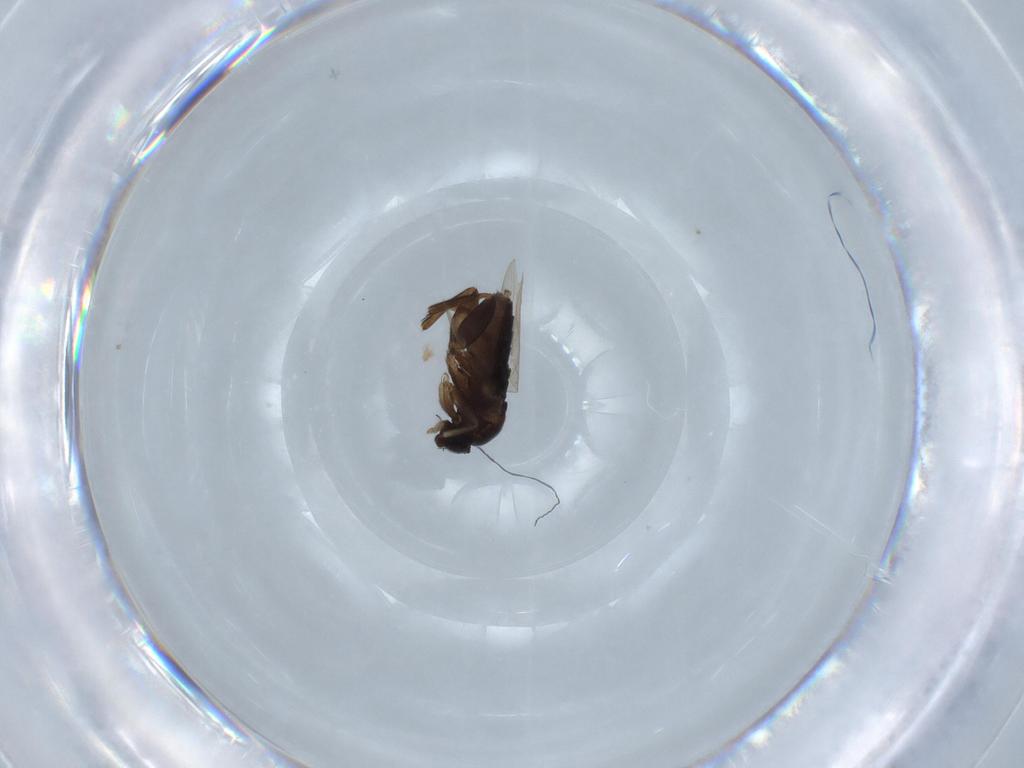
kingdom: Animalia
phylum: Arthropoda
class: Insecta
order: Diptera
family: Phoridae
